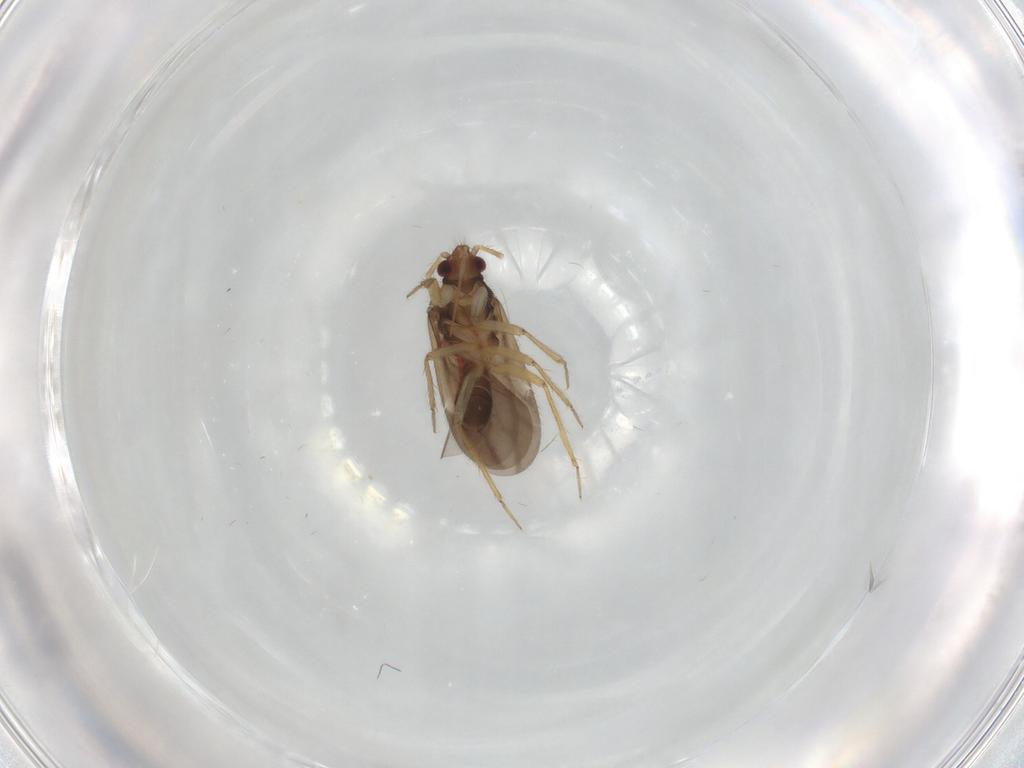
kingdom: Animalia
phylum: Arthropoda
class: Insecta
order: Hemiptera
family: Ceratocombidae
